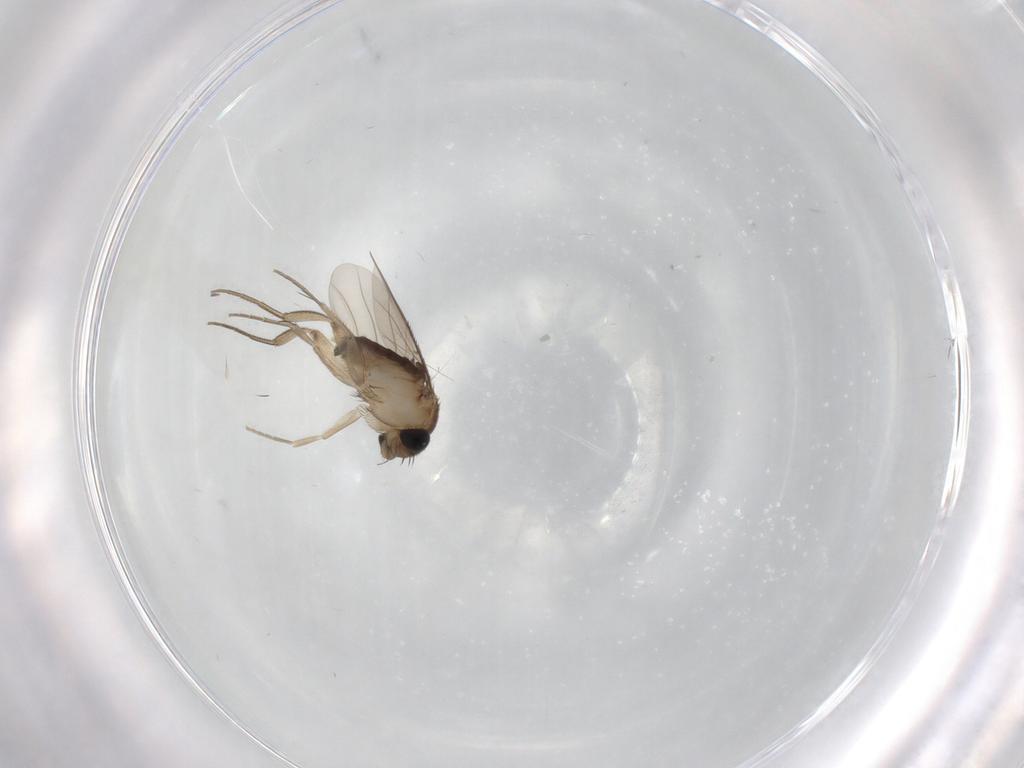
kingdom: Animalia
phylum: Arthropoda
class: Insecta
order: Diptera
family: Phoridae
